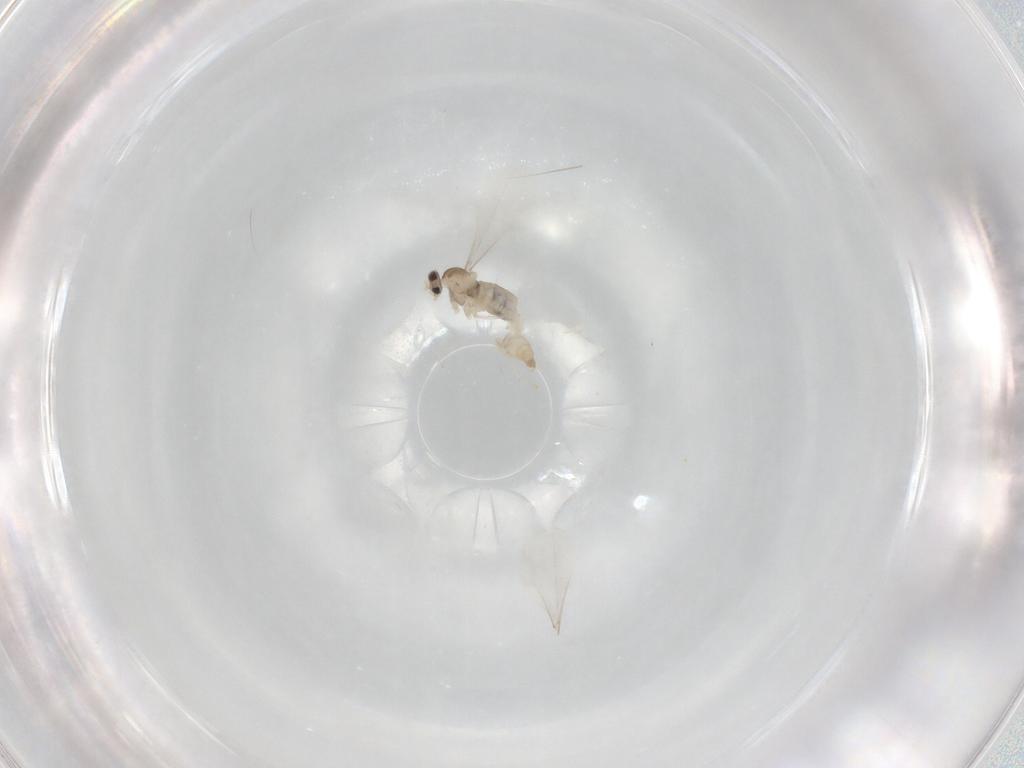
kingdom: Animalia
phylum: Arthropoda
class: Insecta
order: Diptera
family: Cecidomyiidae
